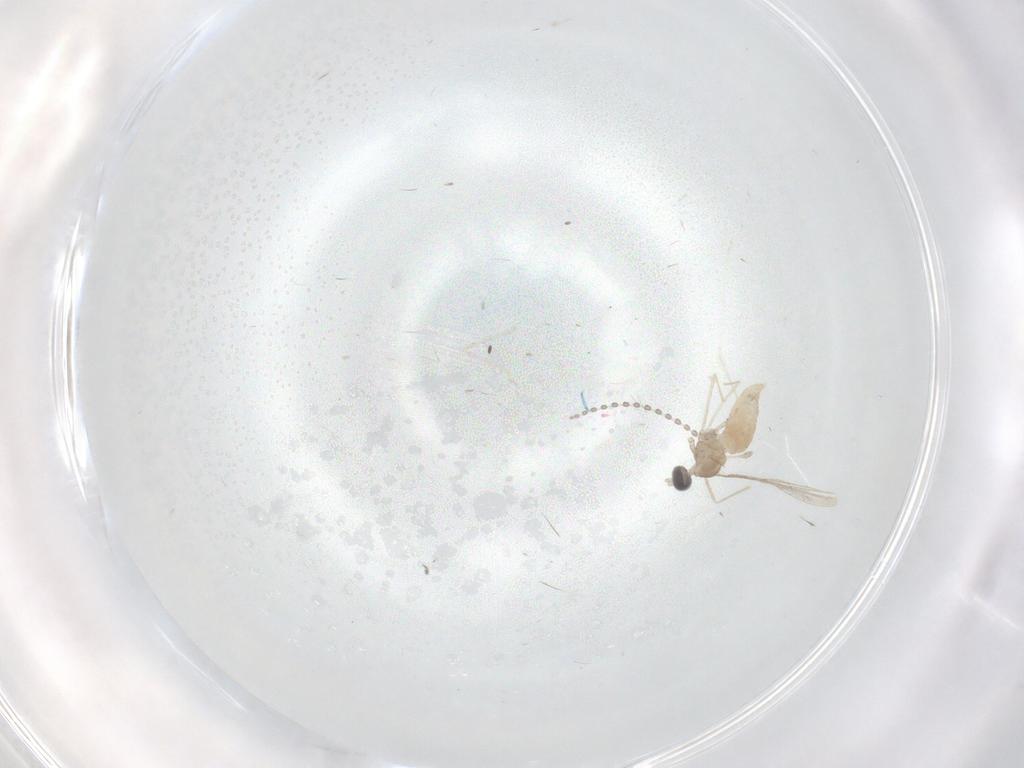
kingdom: Animalia
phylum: Arthropoda
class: Insecta
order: Diptera
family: Cecidomyiidae
